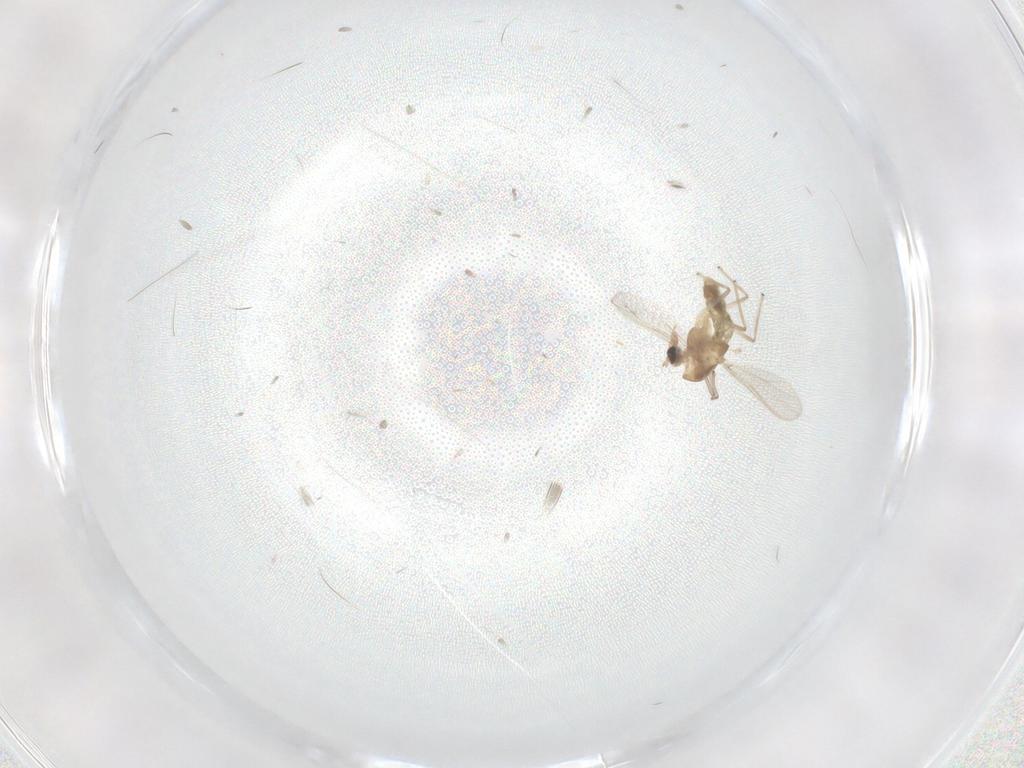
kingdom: Animalia
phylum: Arthropoda
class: Insecta
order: Diptera
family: Chironomidae
